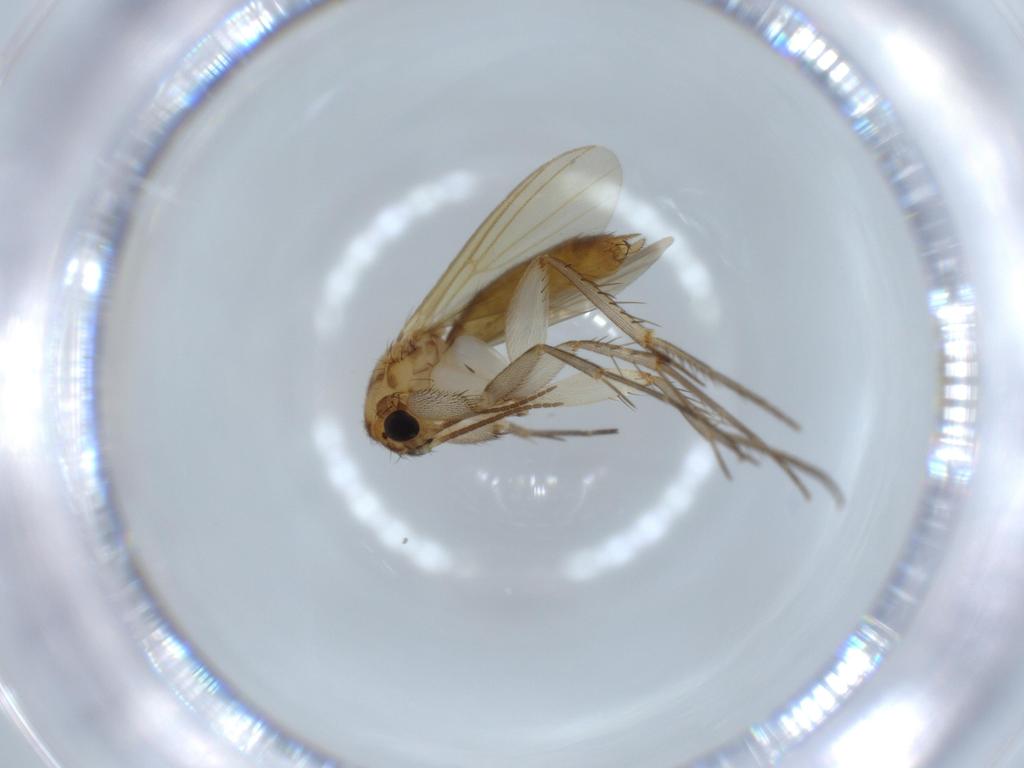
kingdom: Animalia
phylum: Arthropoda
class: Insecta
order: Diptera
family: Ceratopogonidae
